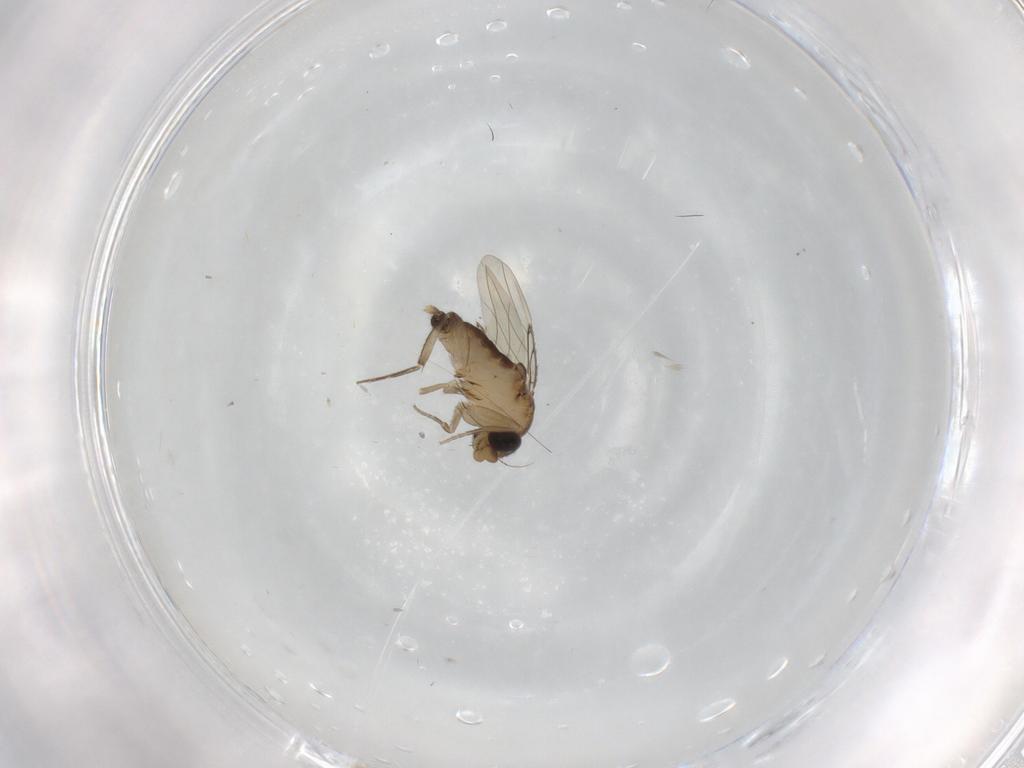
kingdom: Animalia
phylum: Arthropoda
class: Insecta
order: Diptera
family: Phoridae
